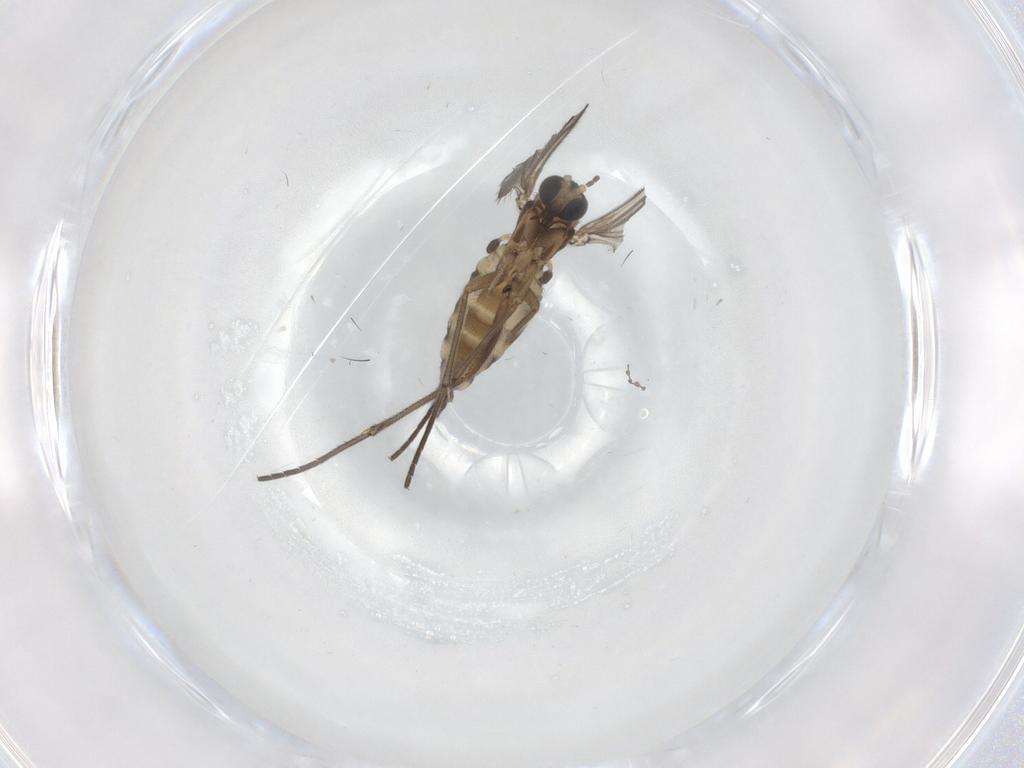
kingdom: Animalia
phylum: Arthropoda
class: Insecta
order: Diptera
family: Sciaridae
